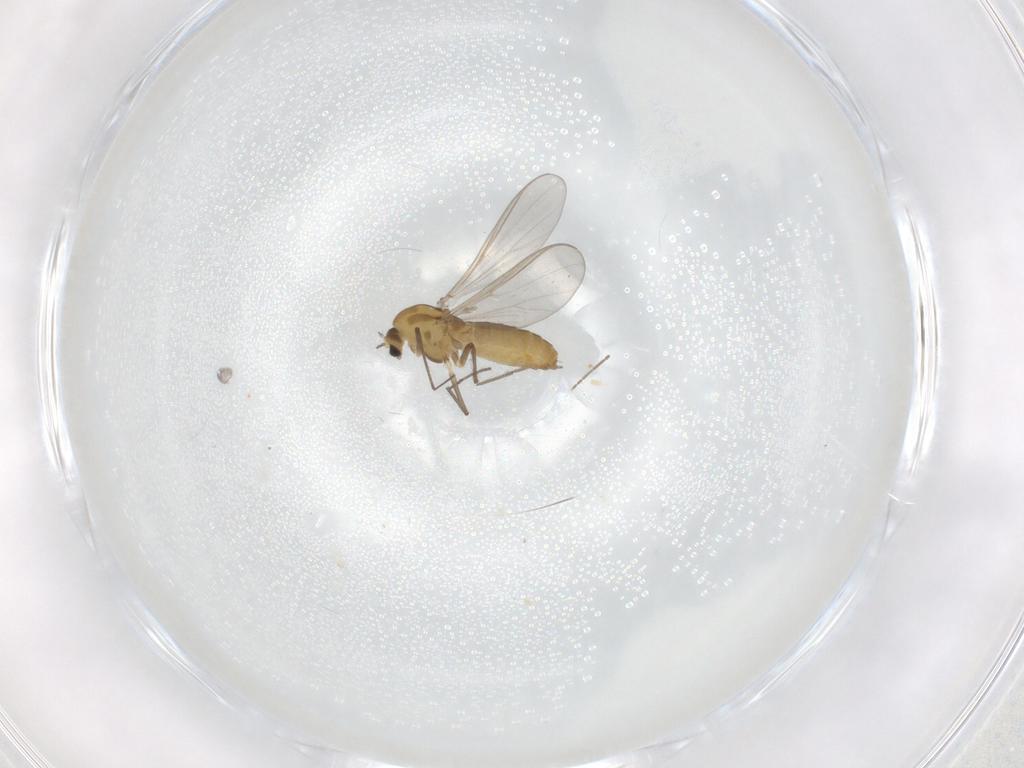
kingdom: Animalia
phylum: Arthropoda
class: Insecta
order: Diptera
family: Chironomidae
